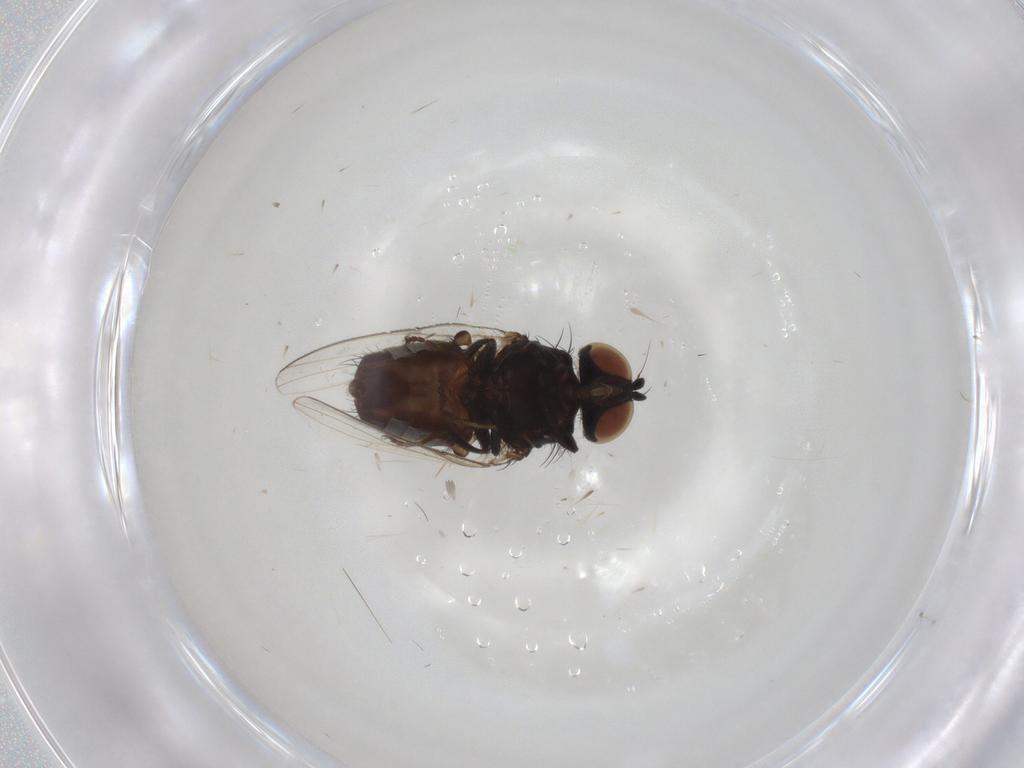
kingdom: Animalia
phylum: Arthropoda
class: Insecta
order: Diptera
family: Milichiidae
